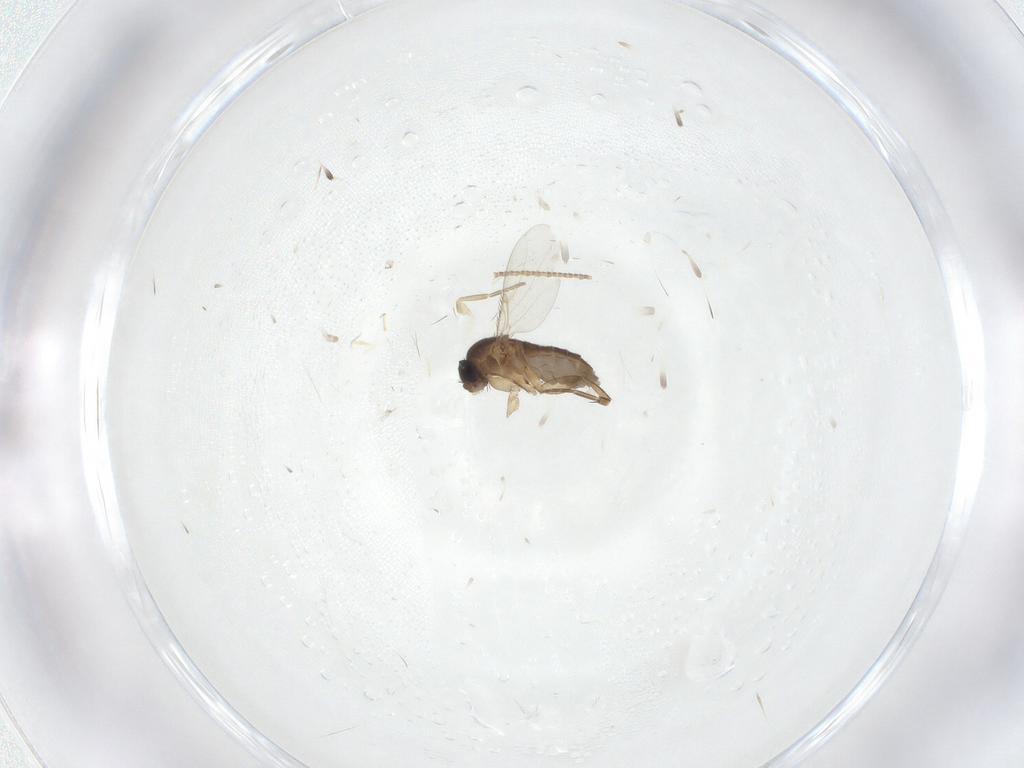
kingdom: Animalia
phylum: Arthropoda
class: Insecta
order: Diptera
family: Phoridae
